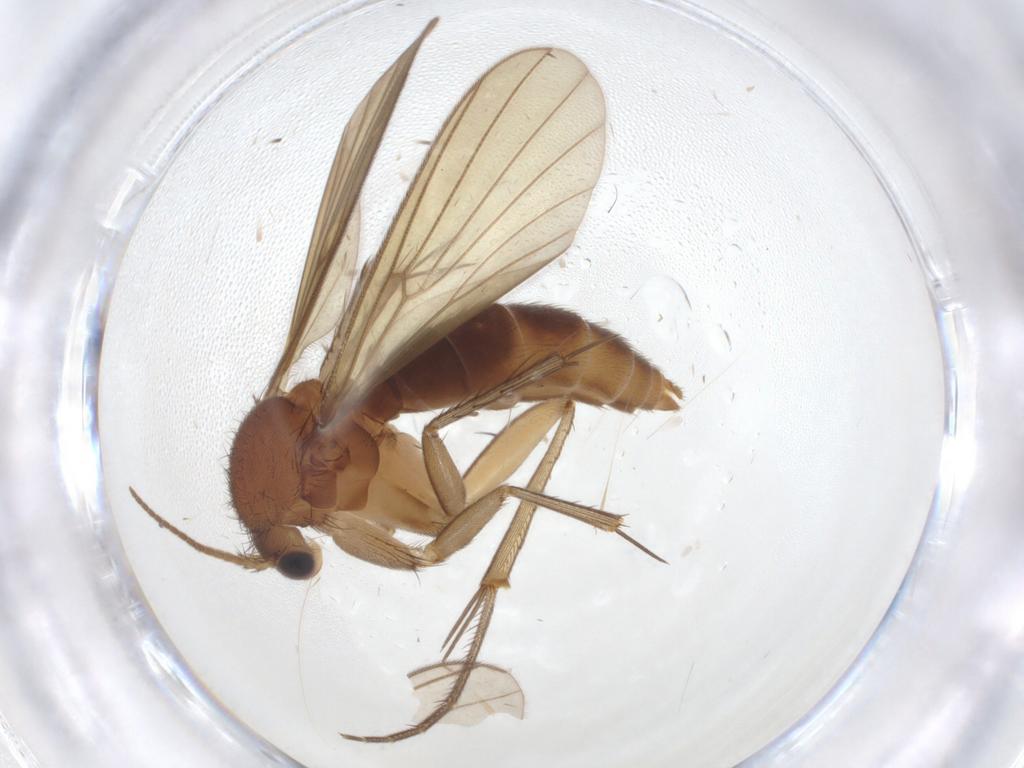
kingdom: Animalia
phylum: Arthropoda
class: Insecta
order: Diptera
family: Mycetophilidae
